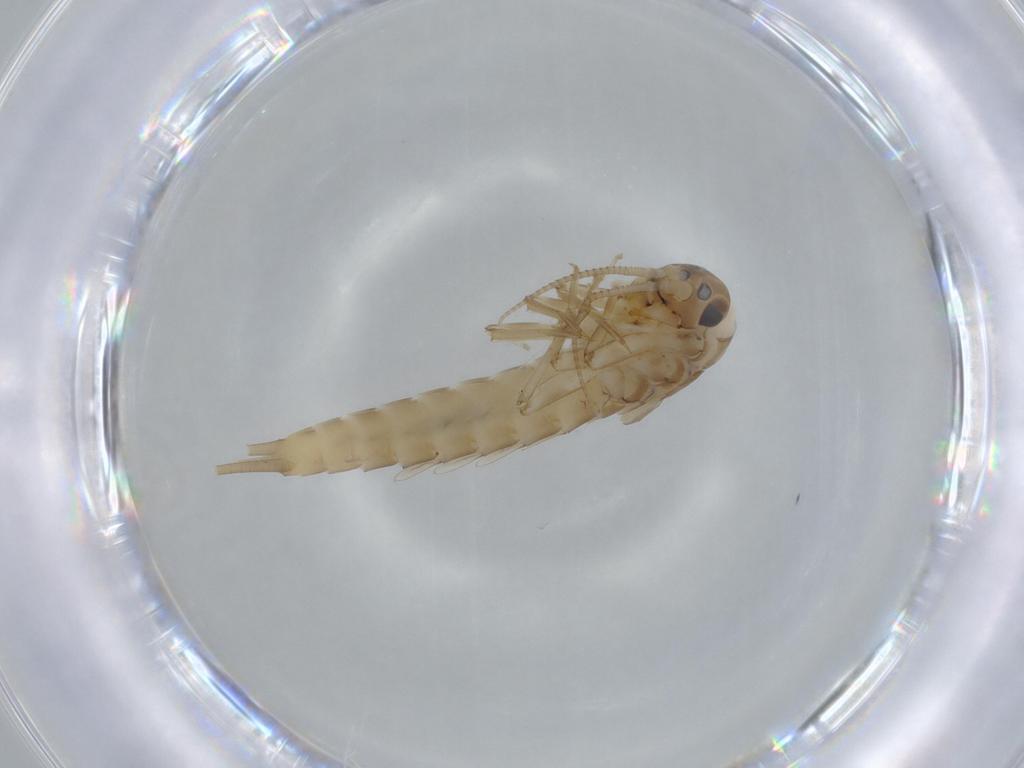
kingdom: Animalia
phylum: Arthropoda
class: Insecta
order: Ephemeroptera
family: Baetidae
